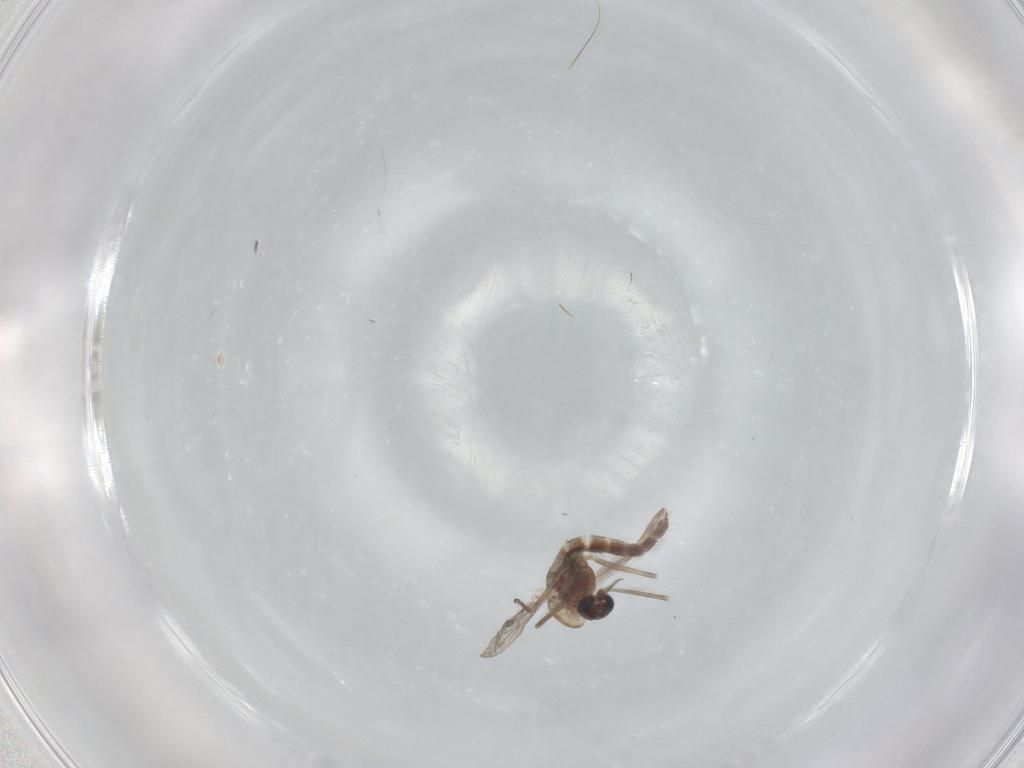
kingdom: Animalia
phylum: Arthropoda
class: Insecta
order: Diptera
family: Chironomidae
